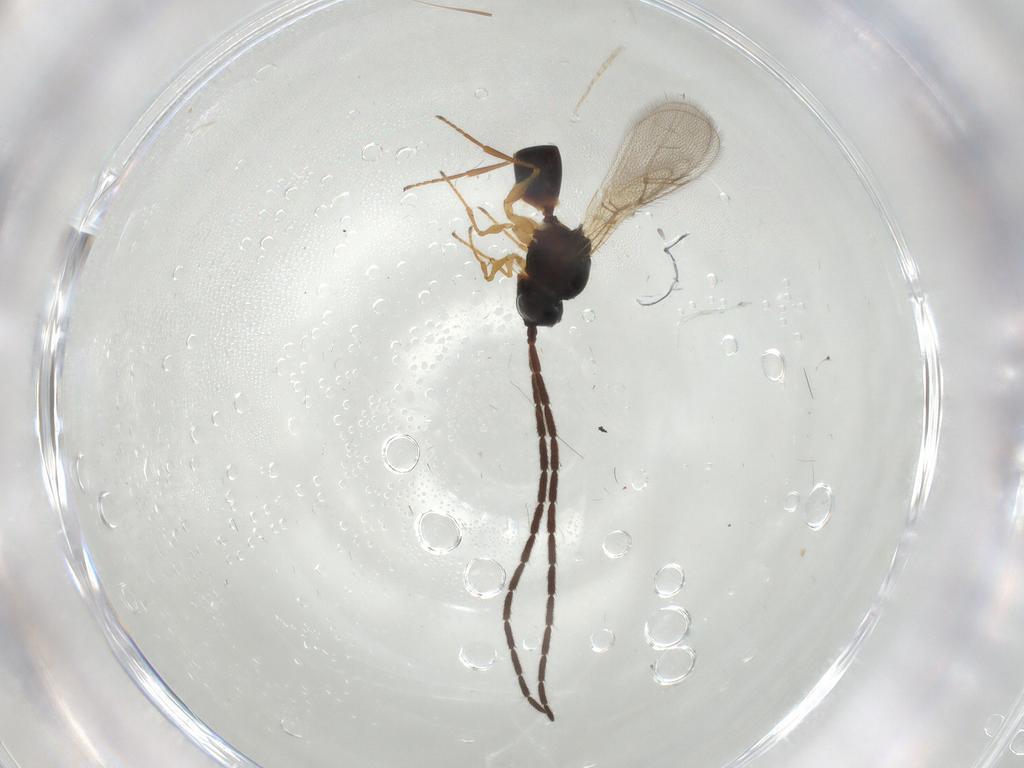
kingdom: Animalia
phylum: Arthropoda
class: Insecta
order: Hymenoptera
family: Figitidae
